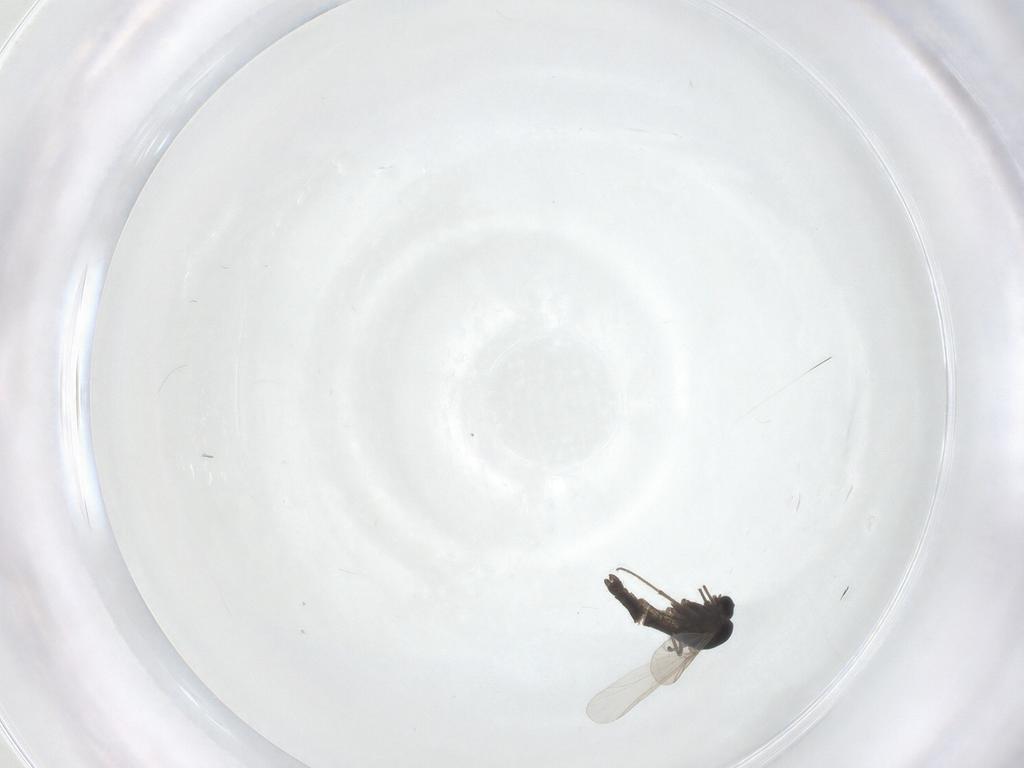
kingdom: Animalia
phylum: Arthropoda
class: Insecta
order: Diptera
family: Chironomidae
